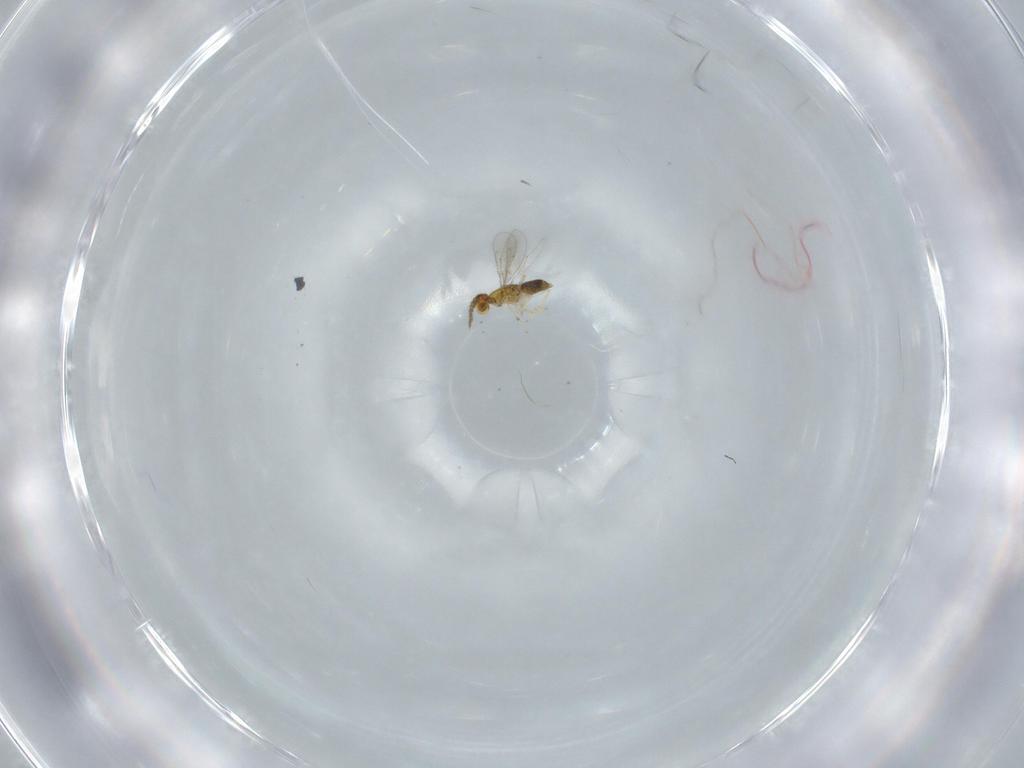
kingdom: Animalia
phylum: Arthropoda
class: Insecta
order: Hymenoptera
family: Aphelinidae
